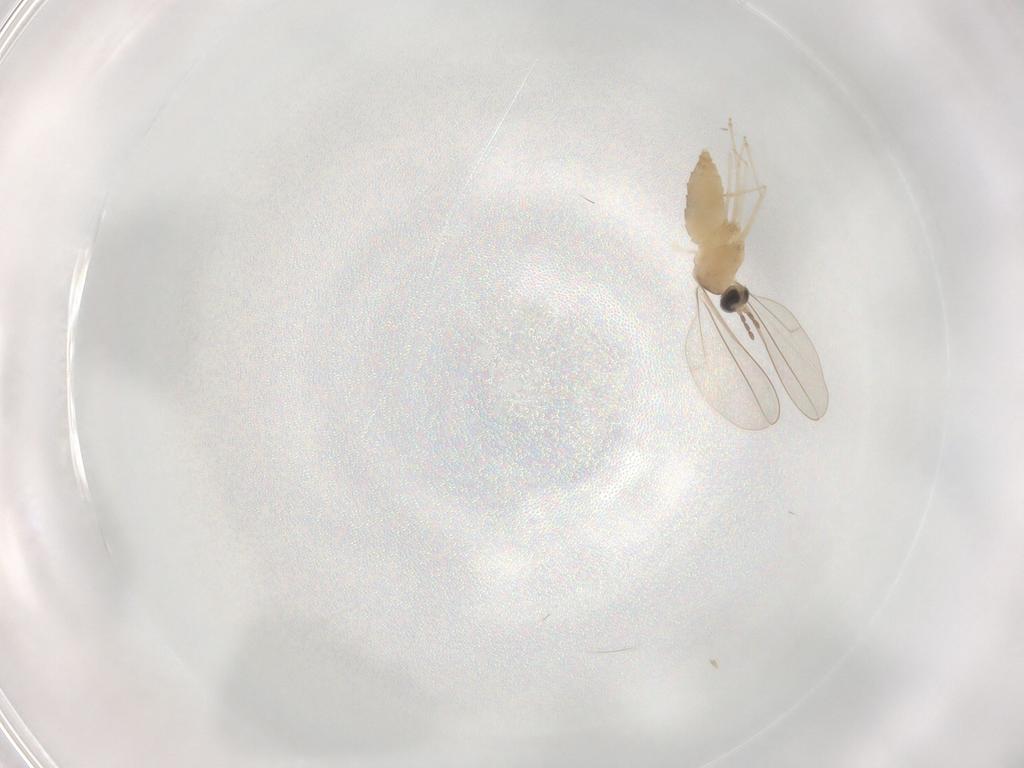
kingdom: Animalia
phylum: Arthropoda
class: Insecta
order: Diptera
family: Cecidomyiidae
